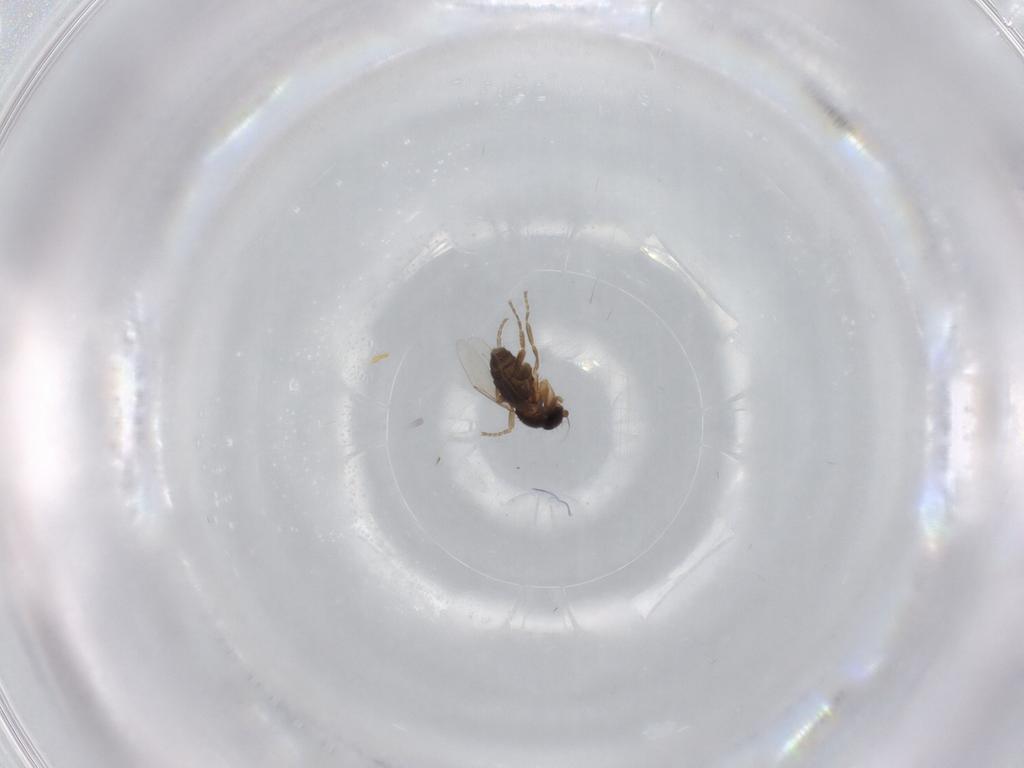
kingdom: Animalia
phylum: Arthropoda
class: Insecta
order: Diptera
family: Phoridae
